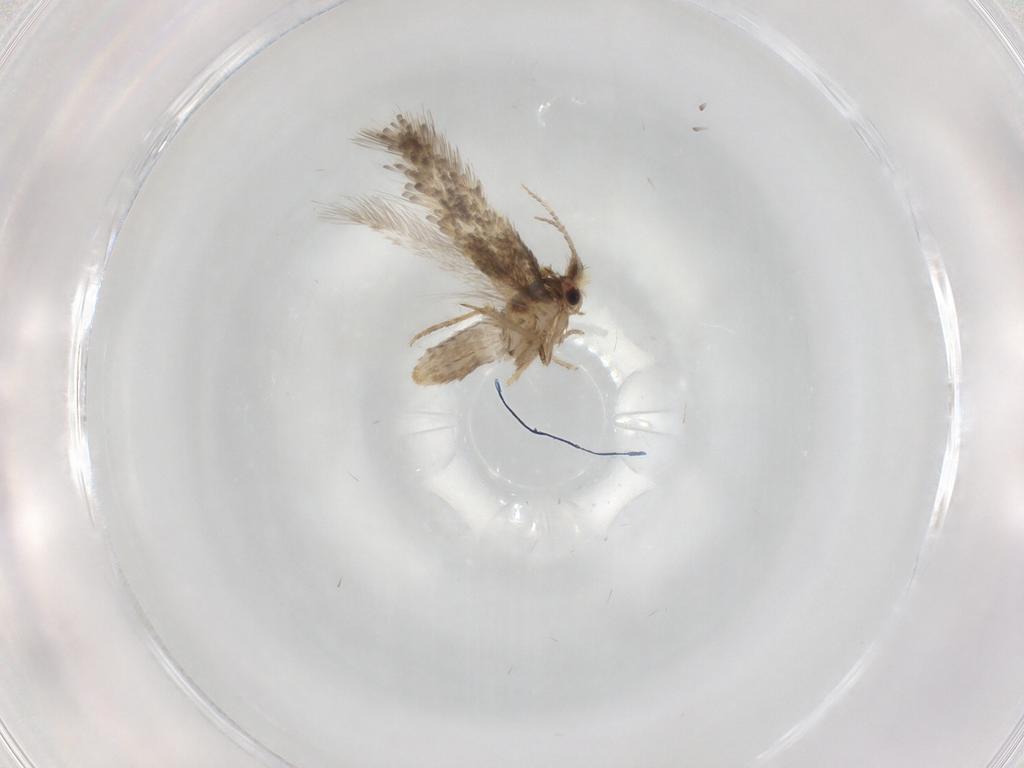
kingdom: Animalia
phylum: Arthropoda
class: Insecta
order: Lepidoptera
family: Nepticulidae
